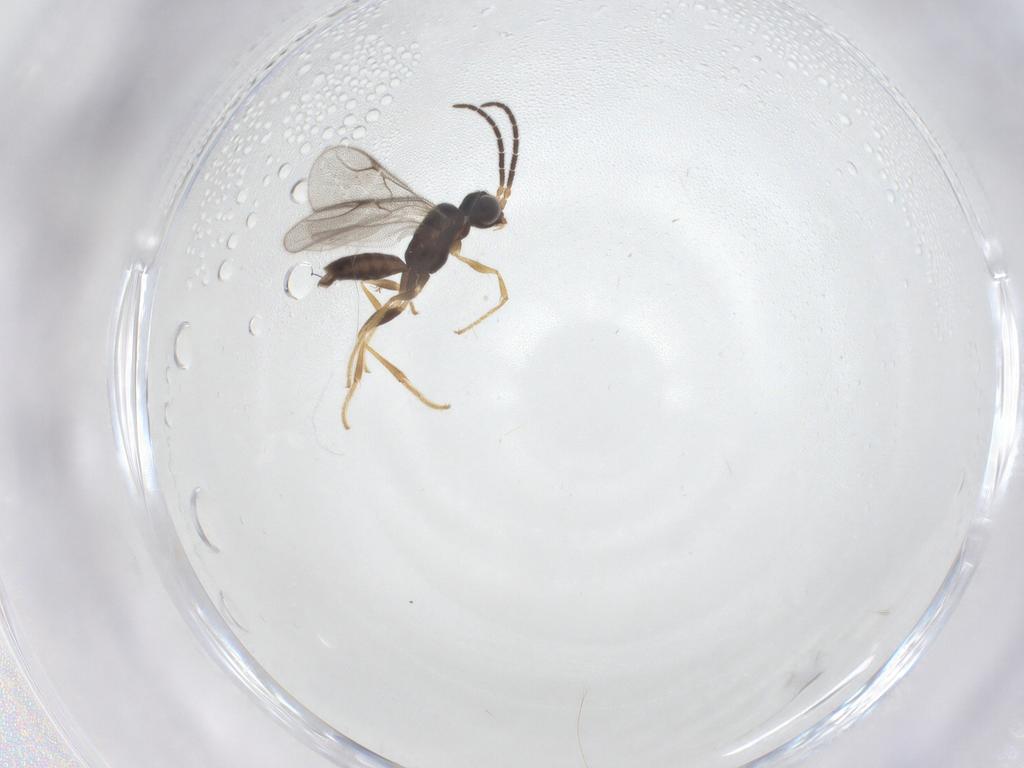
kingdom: Animalia
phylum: Arthropoda
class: Insecta
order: Hymenoptera
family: Dryinidae
